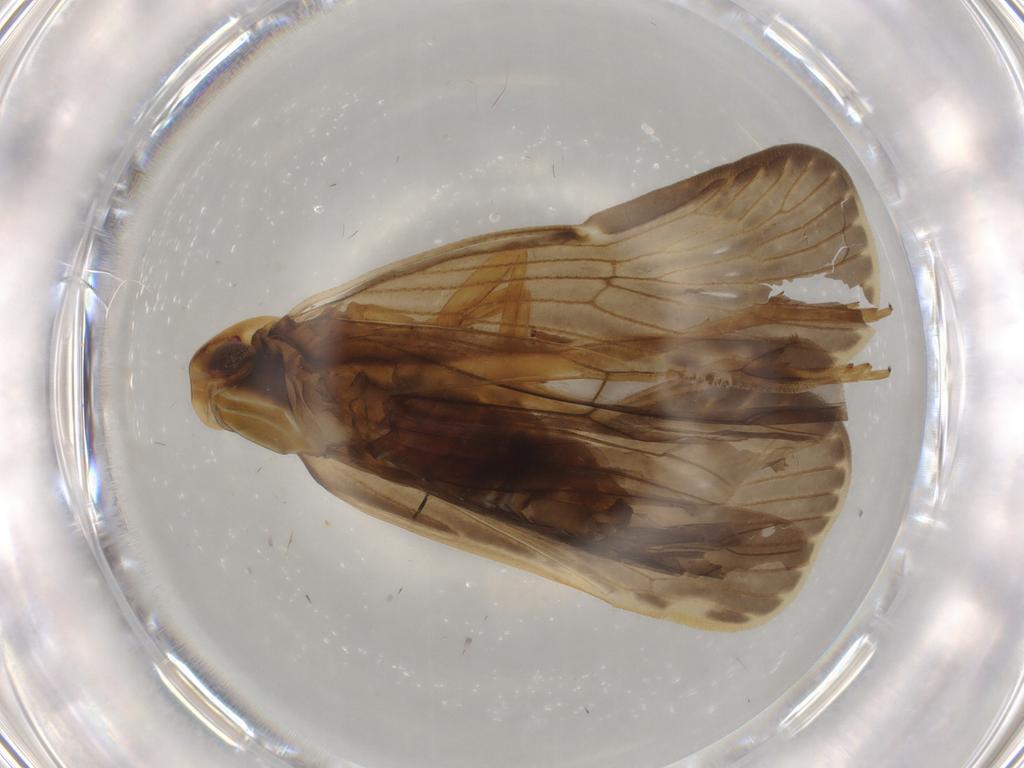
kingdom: Animalia
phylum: Arthropoda
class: Insecta
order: Hemiptera
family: Cixiidae
